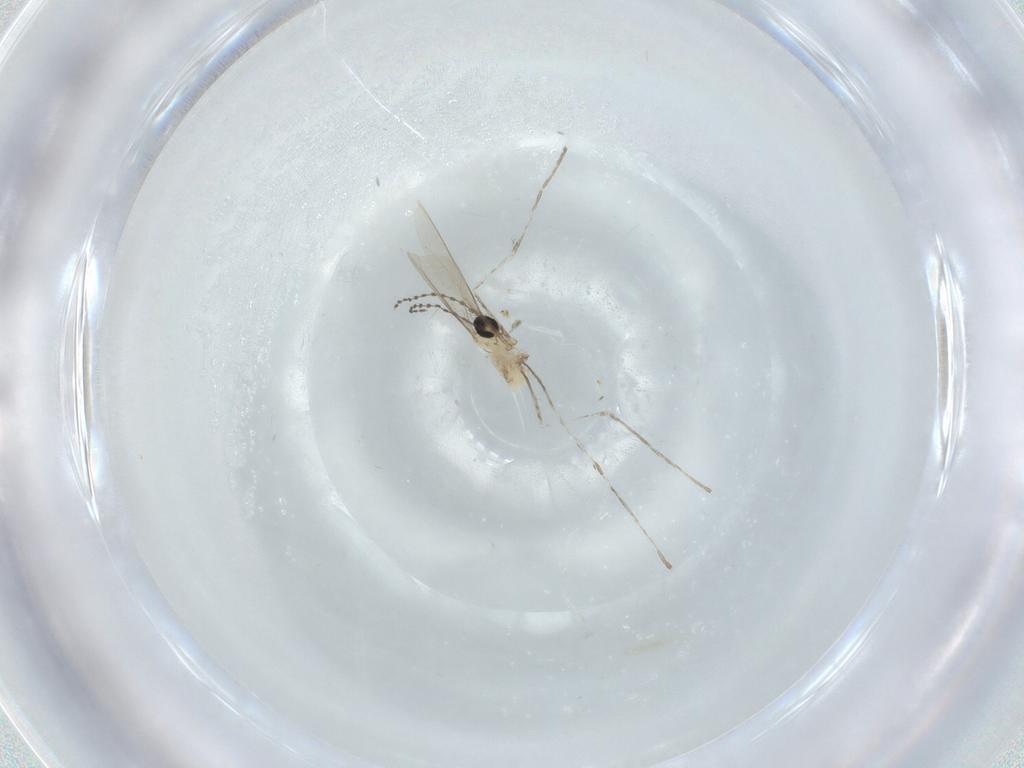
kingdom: Animalia
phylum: Arthropoda
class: Insecta
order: Diptera
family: Cecidomyiidae
